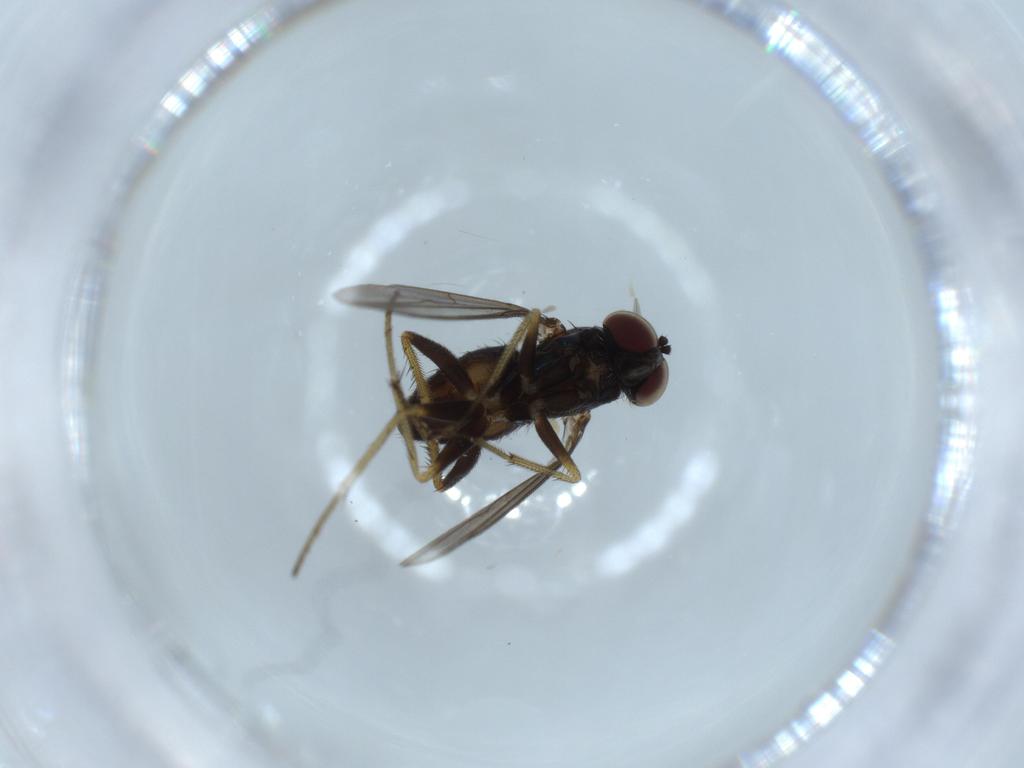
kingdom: Animalia
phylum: Arthropoda
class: Insecta
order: Diptera
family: Dolichopodidae
